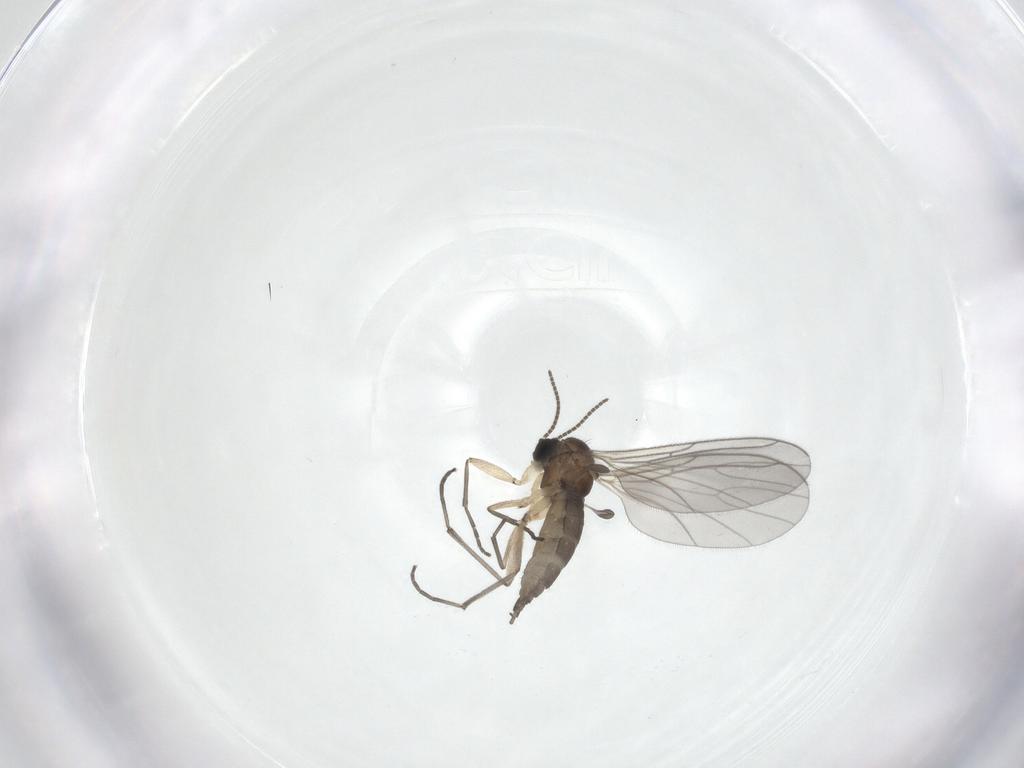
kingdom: Animalia
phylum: Arthropoda
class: Insecta
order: Diptera
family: Sciaridae
